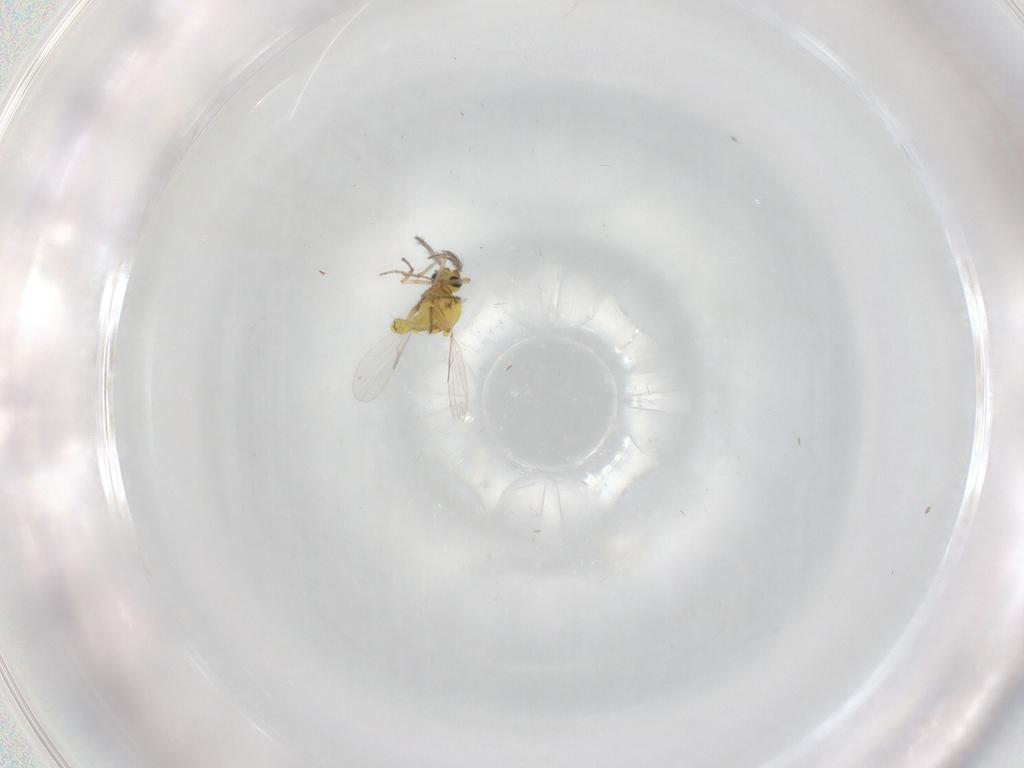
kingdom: Animalia
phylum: Arthropoda
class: Insecta
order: Diptera
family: Ceratopogonidae
